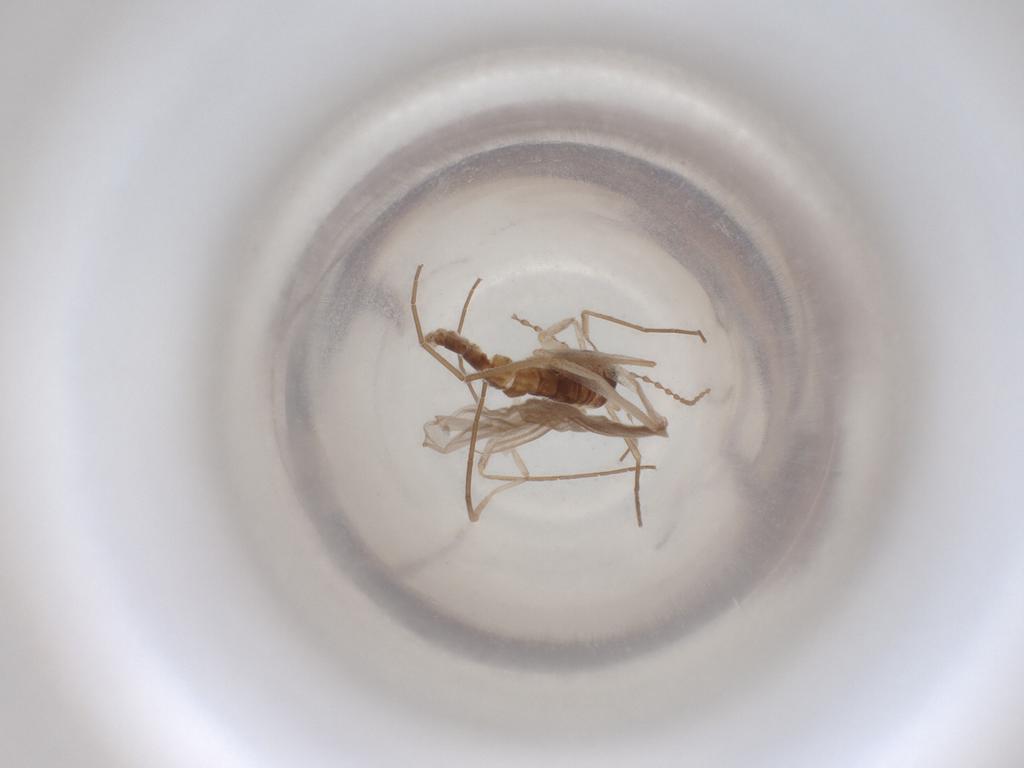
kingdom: Animalia
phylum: Arthropoda
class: Insecta
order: Diptera
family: Cecidomyiidae
